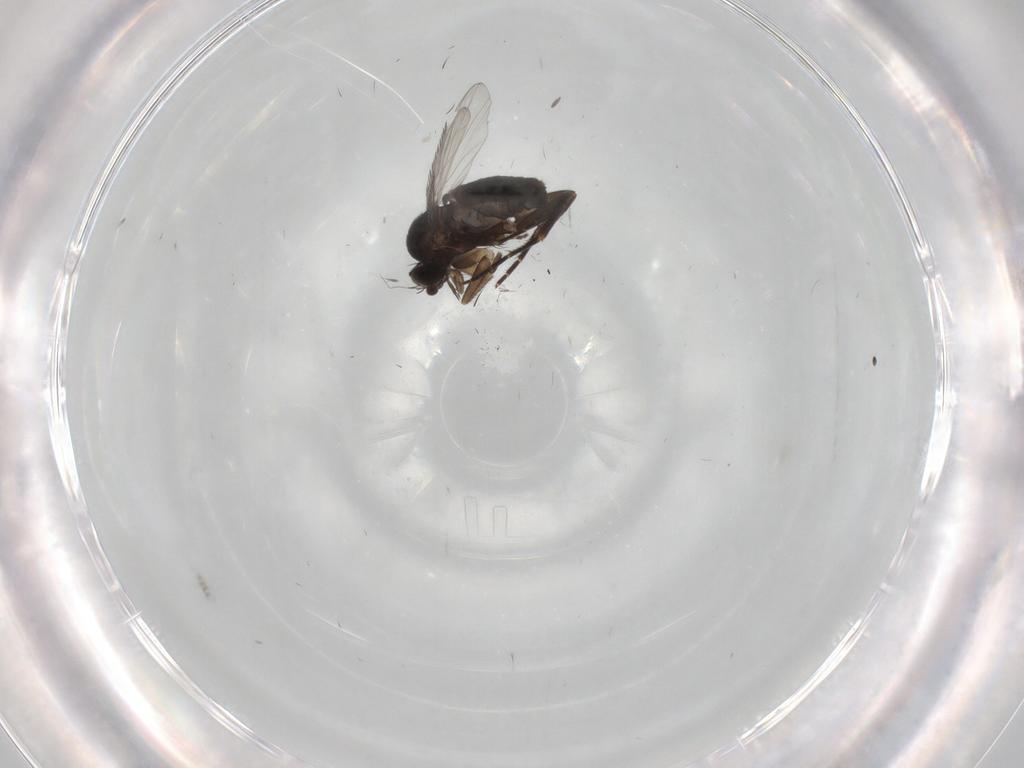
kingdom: Animalia
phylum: Arthropoda
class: Insecta
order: Diptera
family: Phoridae
